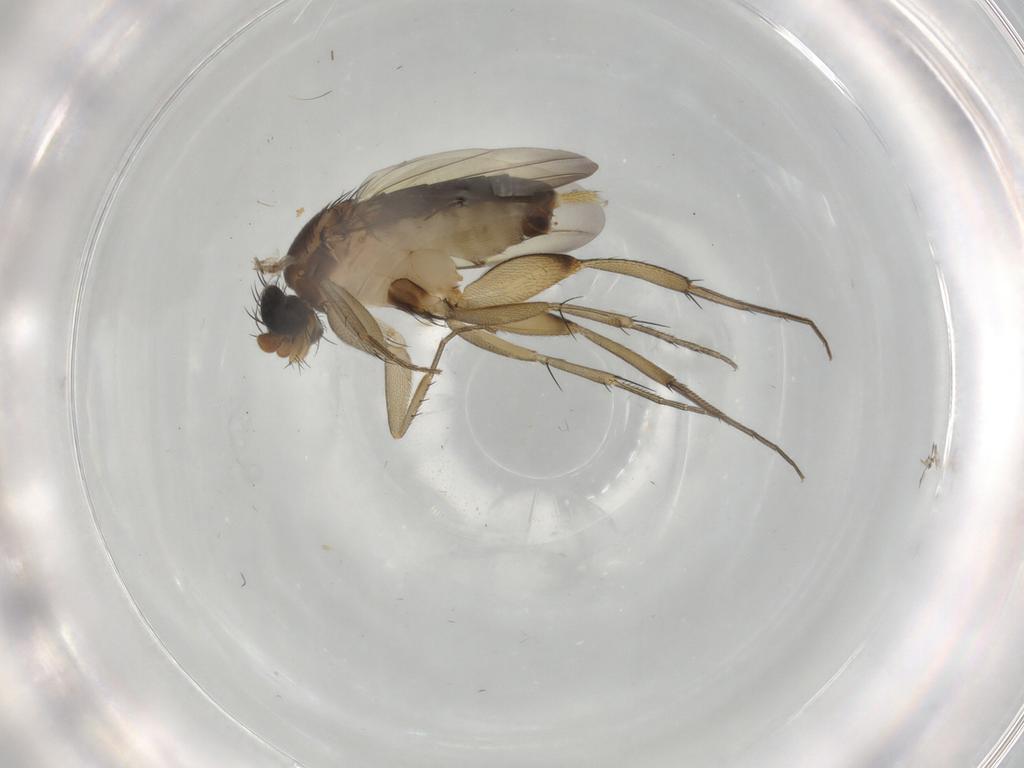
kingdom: Animalia
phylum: Arthropoda
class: Insecta
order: Diptera
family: Phoridae
